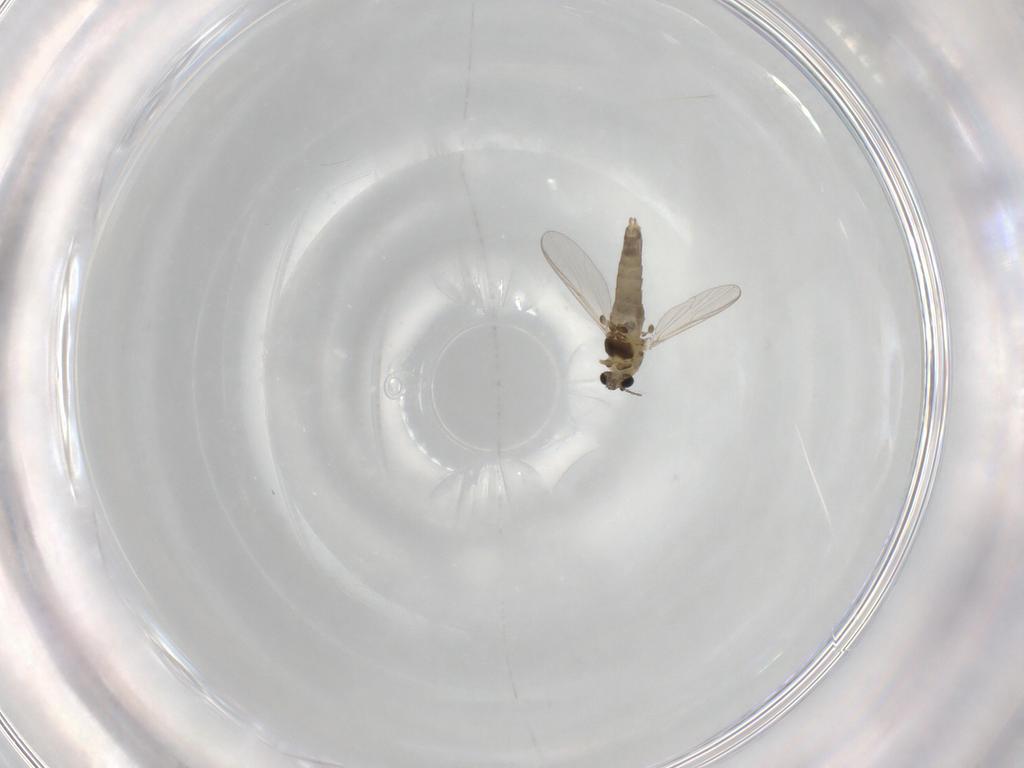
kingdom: Animalia
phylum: Arthropoda
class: Insecta
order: Diptera
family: Chironomidae
